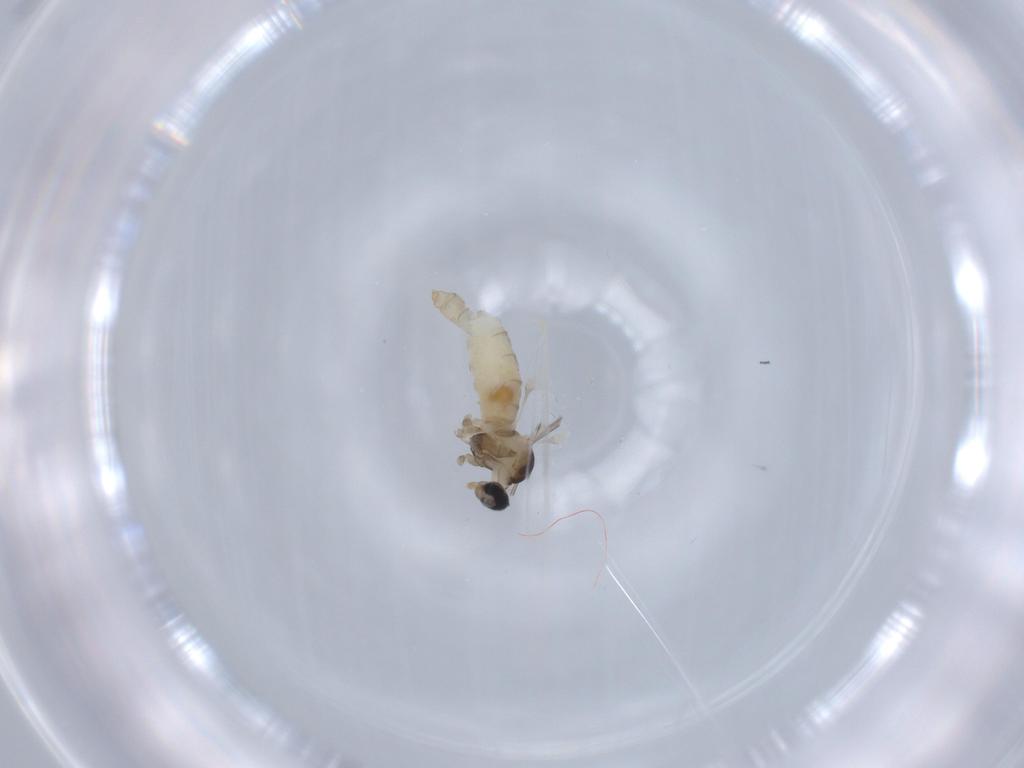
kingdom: Animalia
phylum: Arthropoda
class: Insecta
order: Diptera
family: Cecidomyiidae
